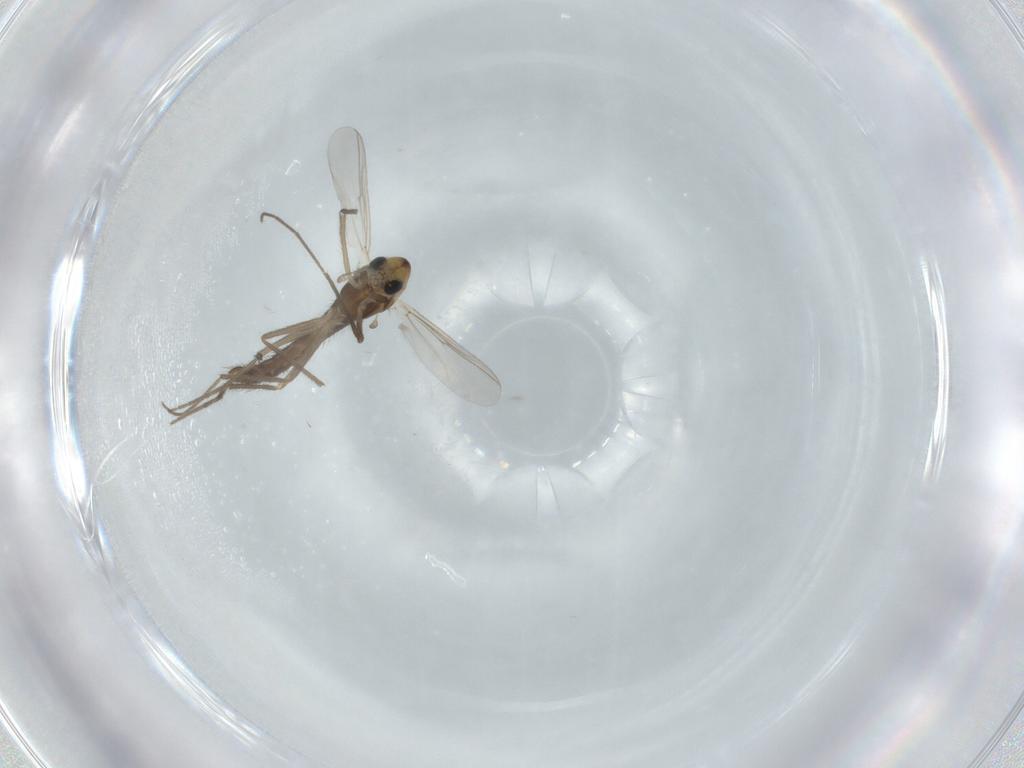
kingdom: Animalia
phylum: Arthropoda
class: Insecta
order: Diptera
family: Chironomidae
